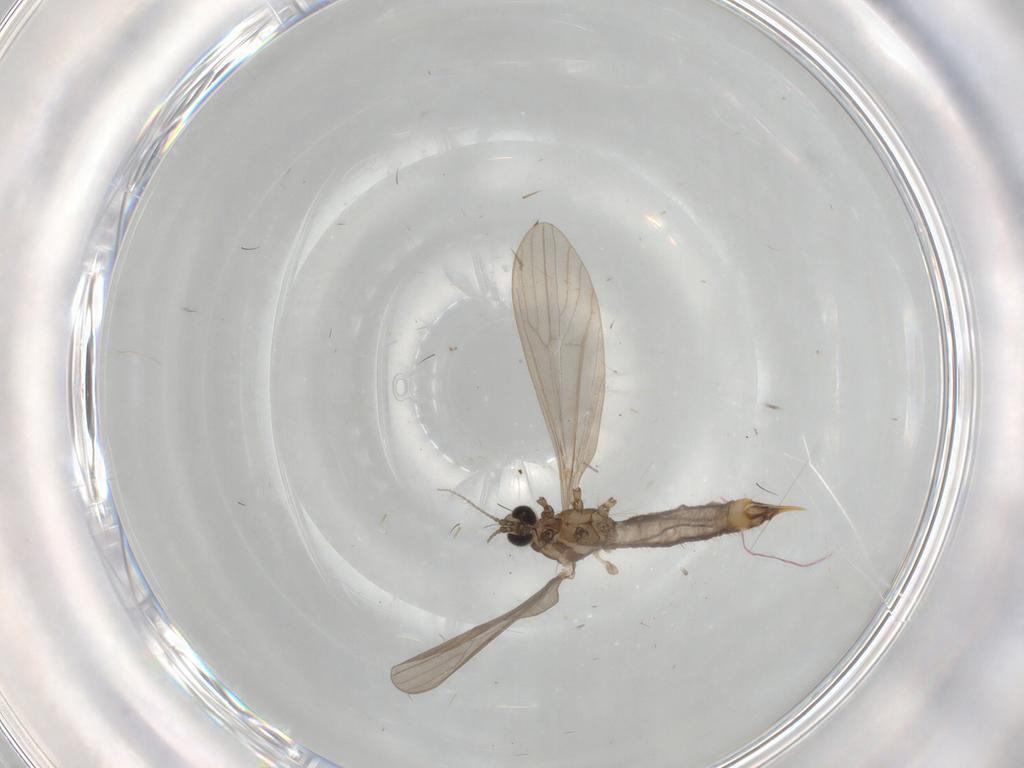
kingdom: Animalia
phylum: Arthropoda
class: Insecta
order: Diptera
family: Limoniidae
